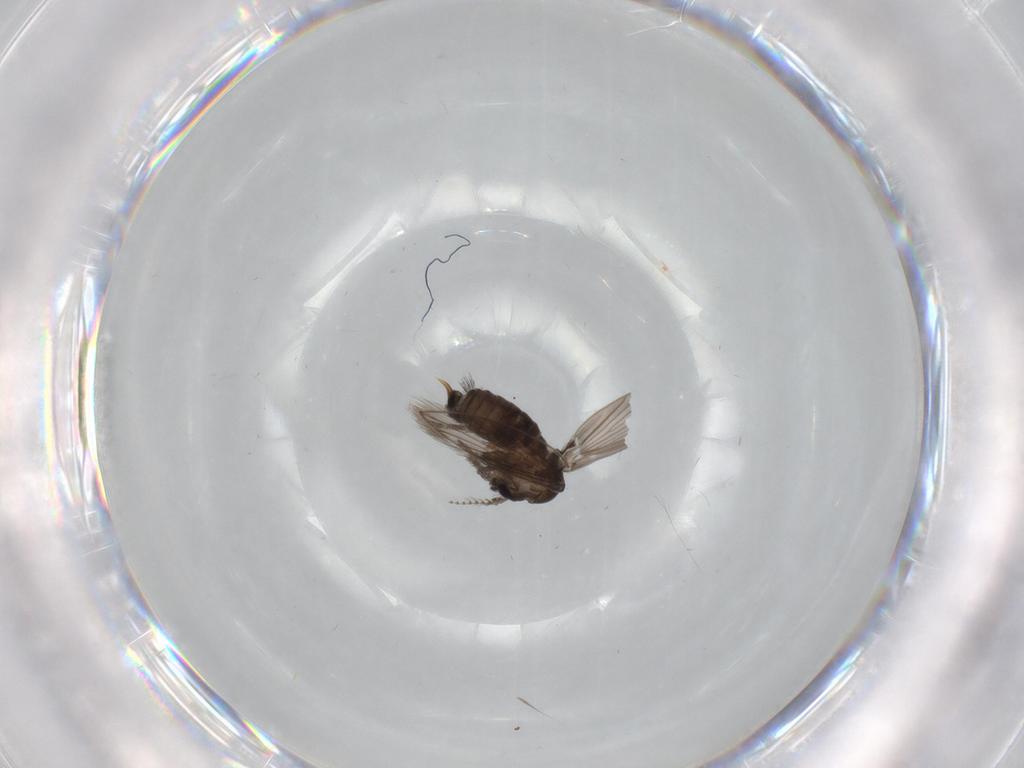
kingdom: Animalia
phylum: Arthropoda
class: Insecta
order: Diptera
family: Psychodidae
